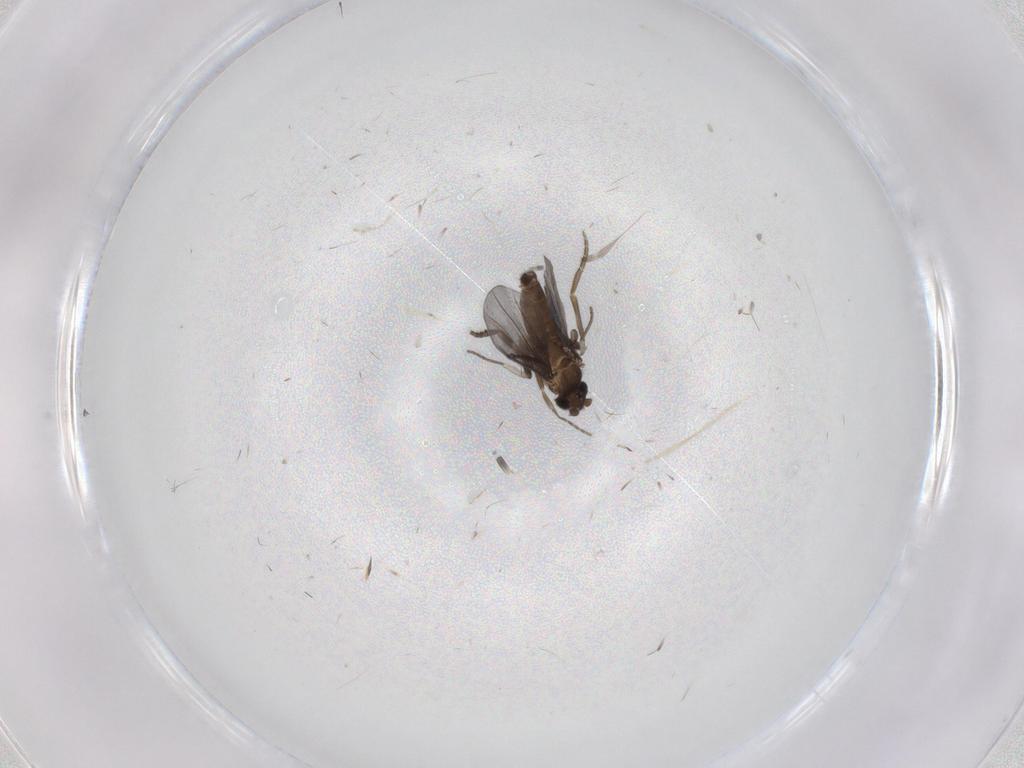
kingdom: Animalia
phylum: Arthropoda
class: Insecta
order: Diptera
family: Phoridae
